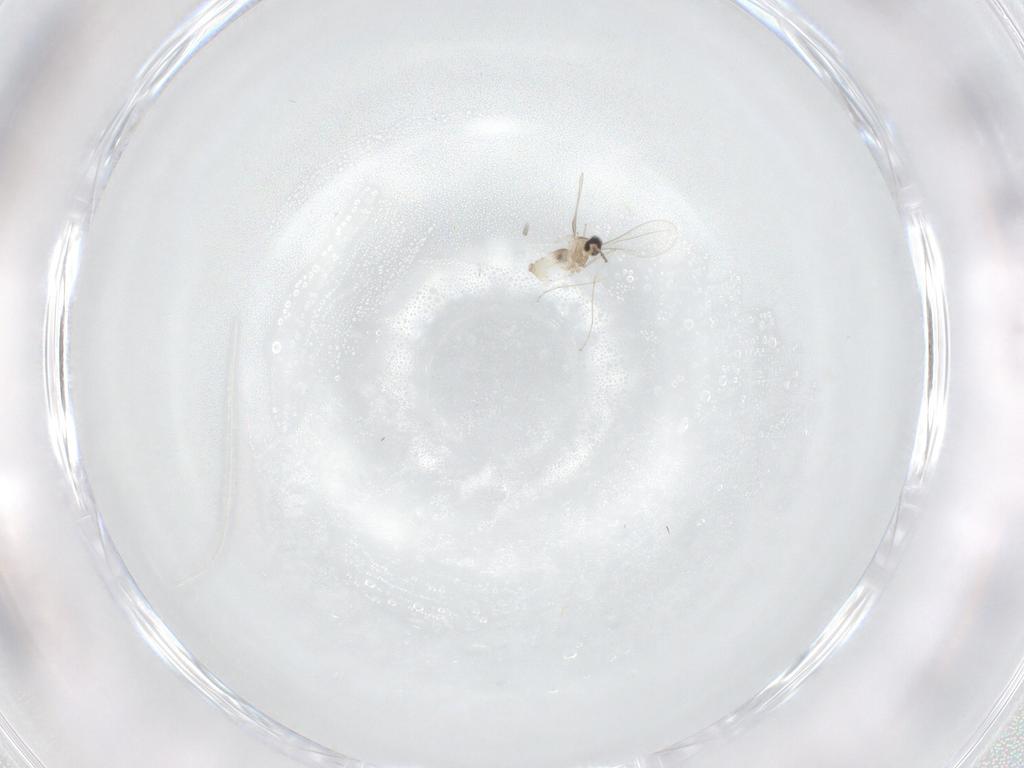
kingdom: Animalia
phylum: Arthropoda
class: Insecta
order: Diptera
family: Cecidomyiidae
